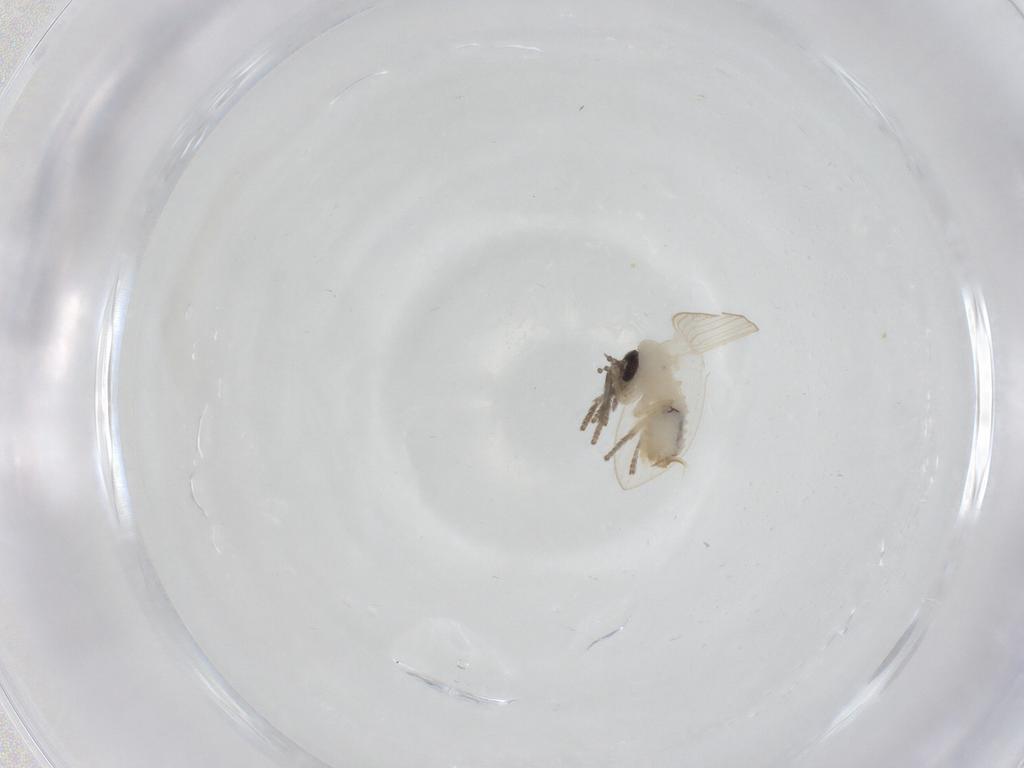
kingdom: Animalia
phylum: Arthropoda
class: Insecta
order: Diptera
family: Psychodidae
